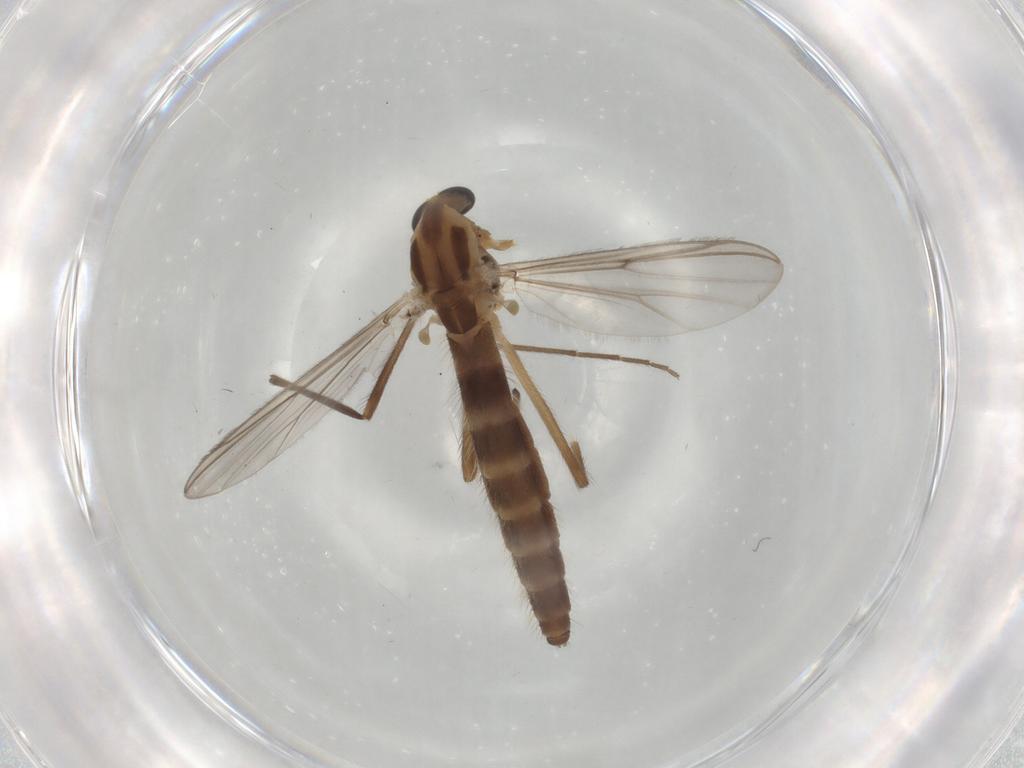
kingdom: Animalia
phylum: Arthropoda
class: Insecta
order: Diptera
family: Chironomidae
